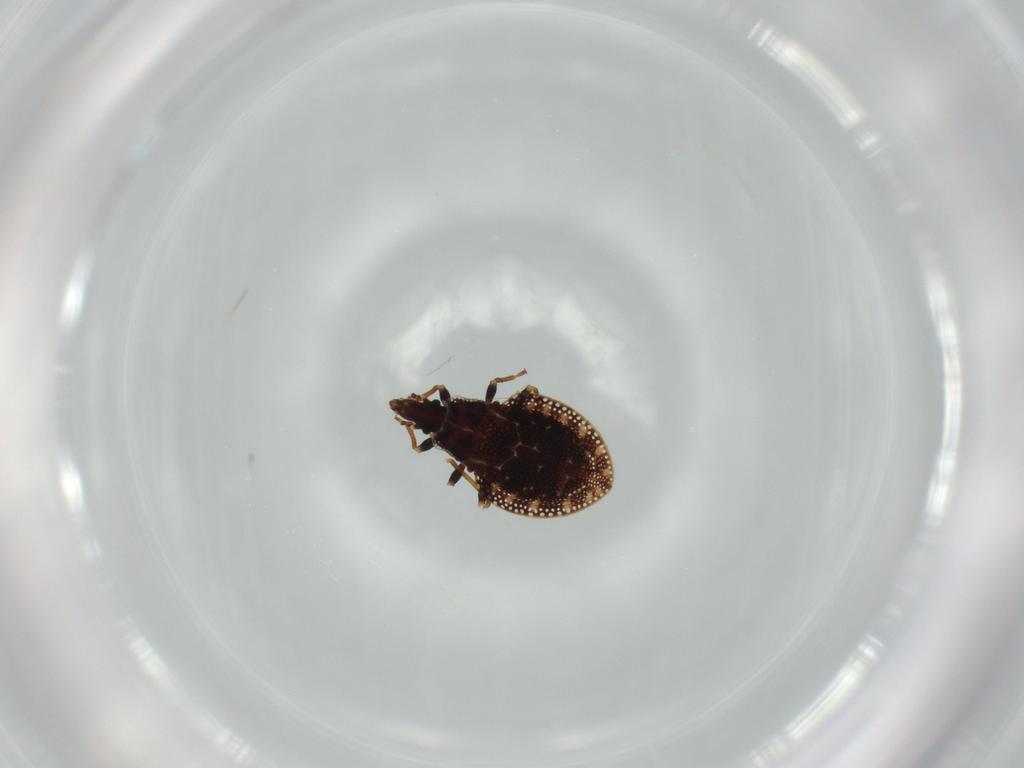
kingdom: Animalia
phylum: Arthropoda
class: Insecta
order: Hemiptera
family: Tingidae
